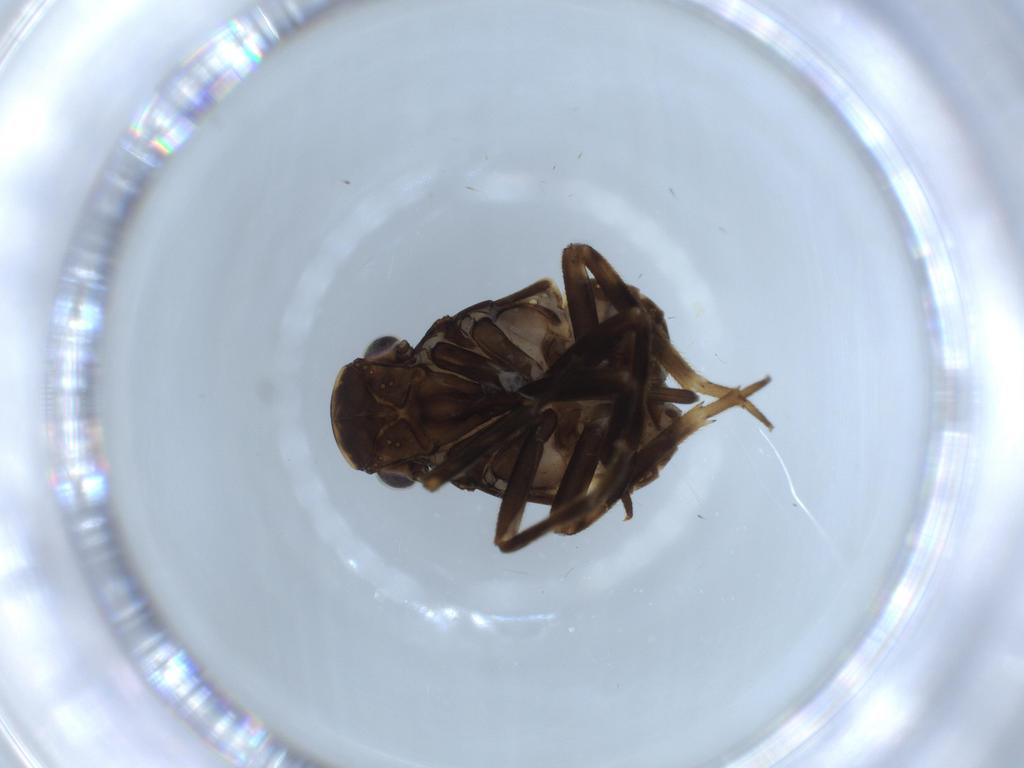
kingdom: Animalia
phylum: Arthropoda
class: Insecta
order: Hemiptera
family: Fulgoridae
